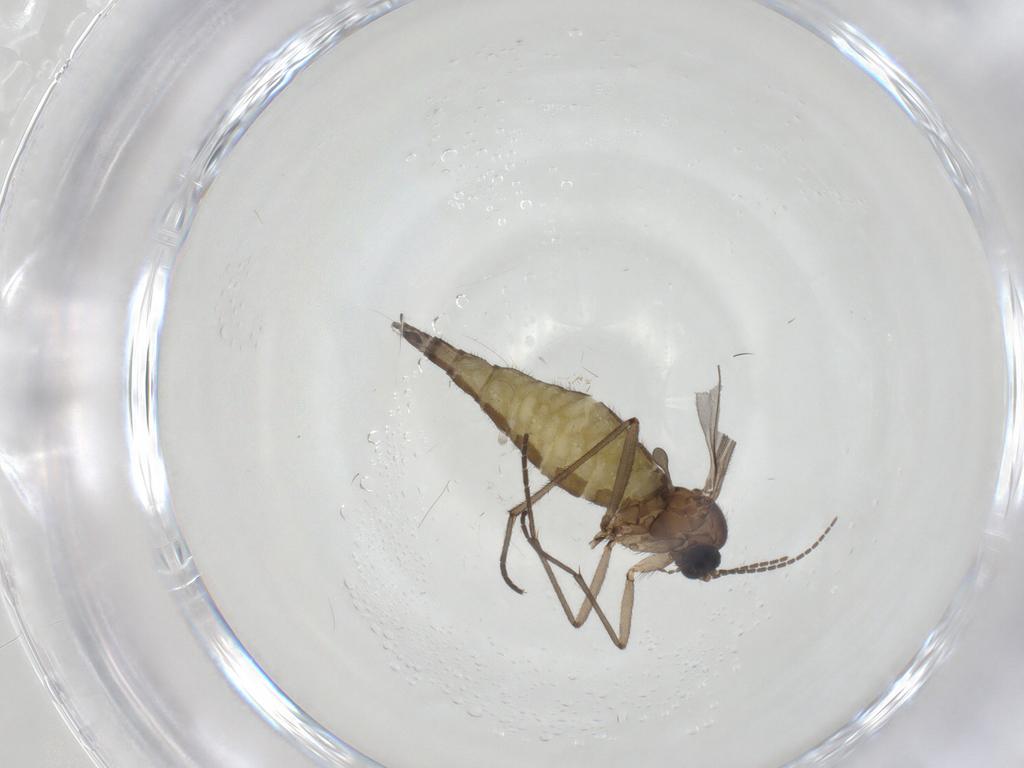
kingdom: Animalia
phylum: Arthropoda
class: Insecta
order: Diptera
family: Sciaridae
